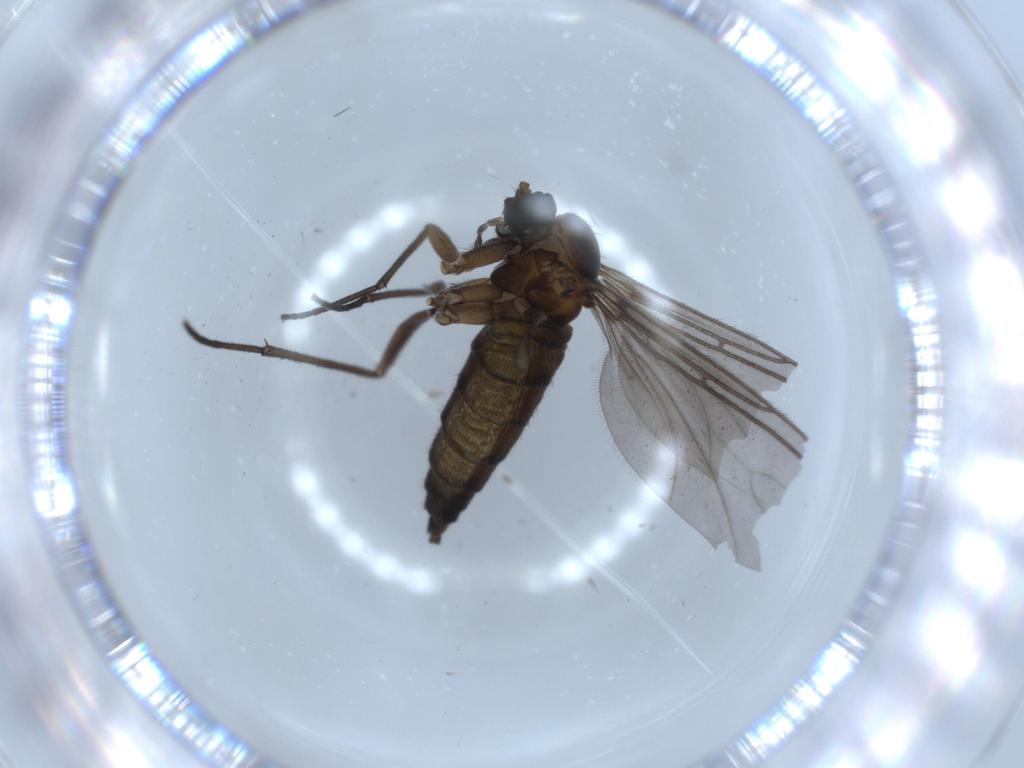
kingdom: Animalia
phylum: Arthropoda
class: Insecta
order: Diptera
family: Sciaridae
